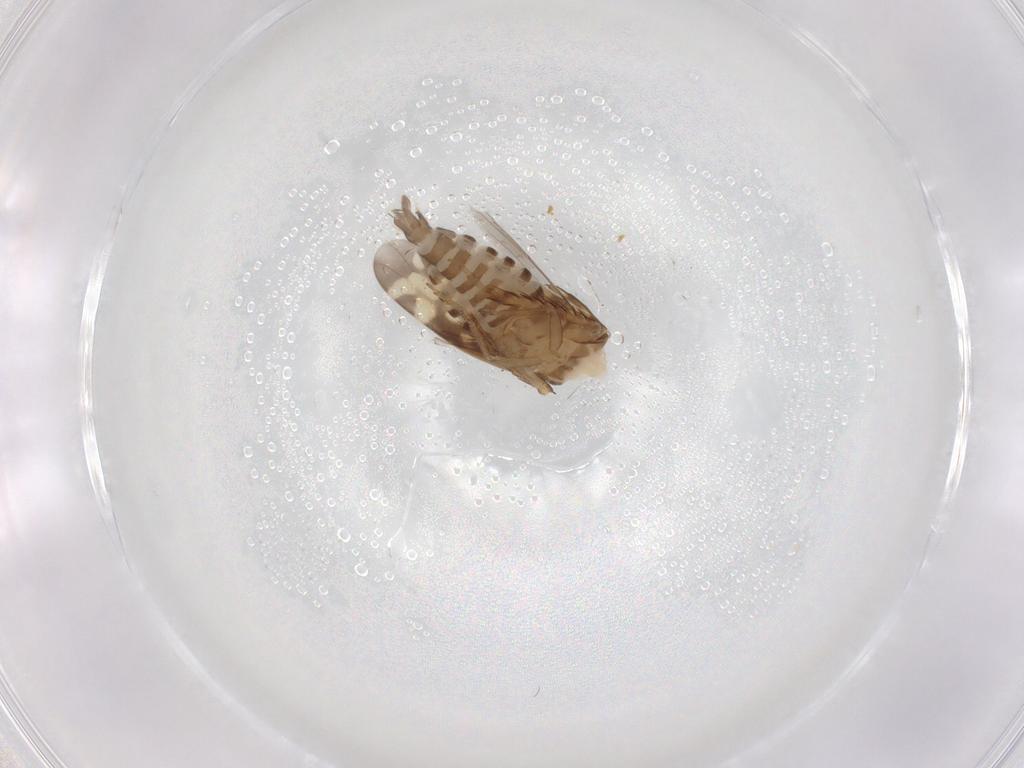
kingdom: Animalia
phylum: Arthropoda
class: Insecta
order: Hemiptera
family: Cicadellidae
